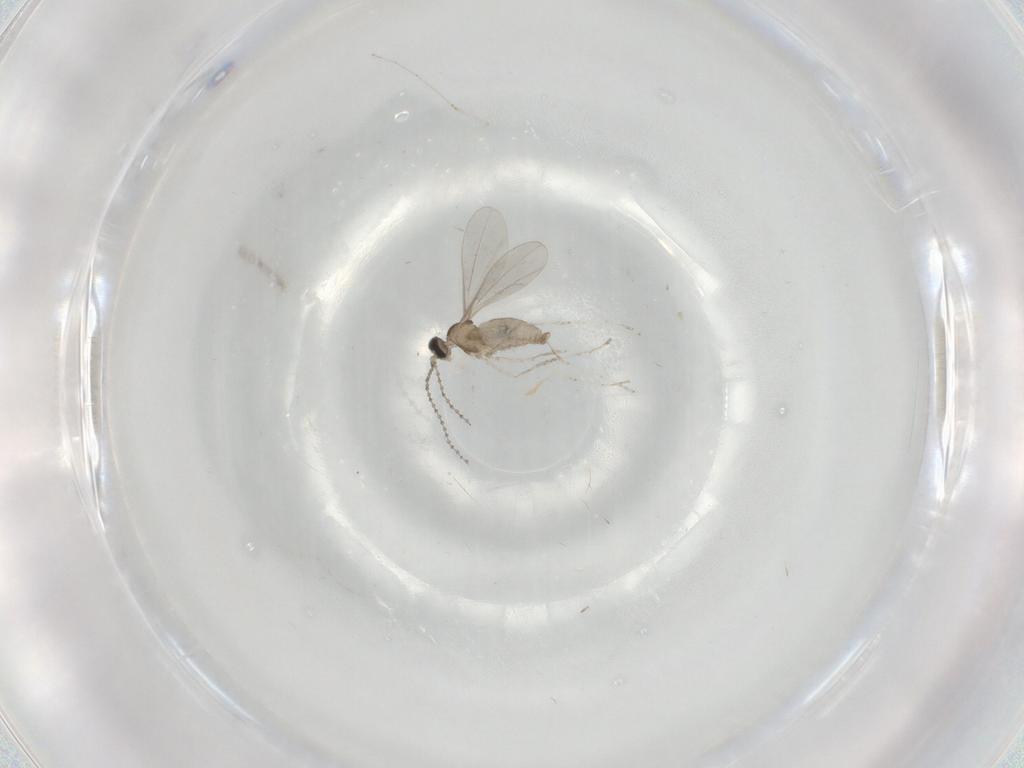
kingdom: Animalia
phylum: Arthropoda
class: Insecta
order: Diptera
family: Cecidomyiidae
